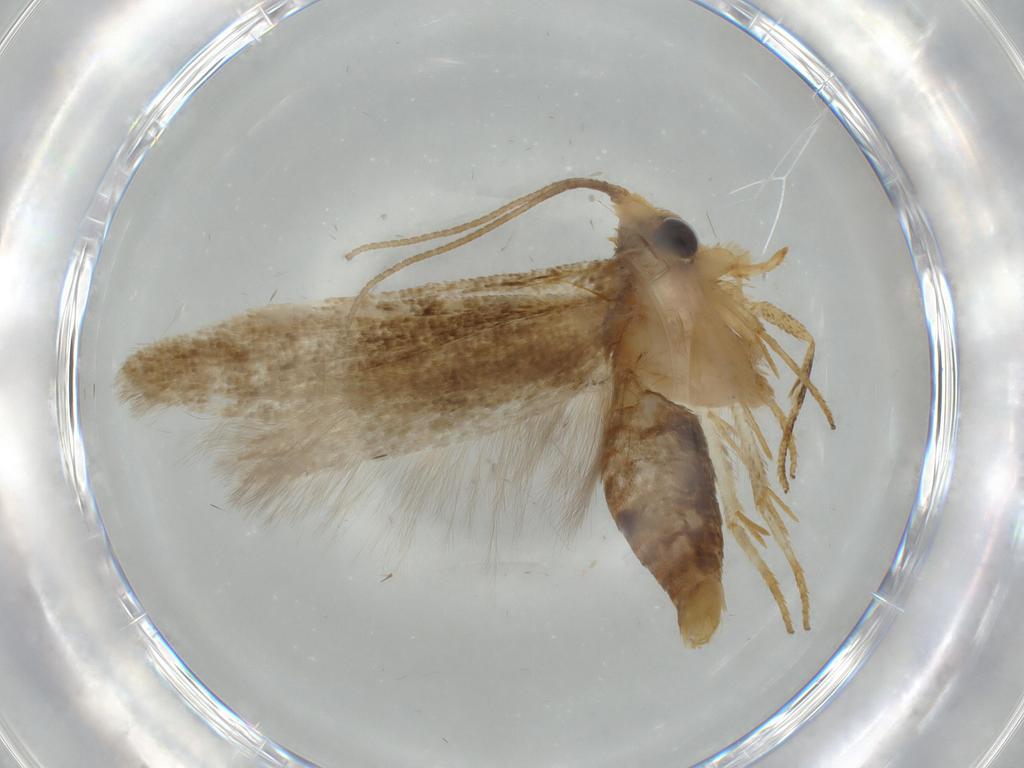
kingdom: Animalia
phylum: Arthropoda
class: Insecta
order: Lepidoptera
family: Coleophoridae
